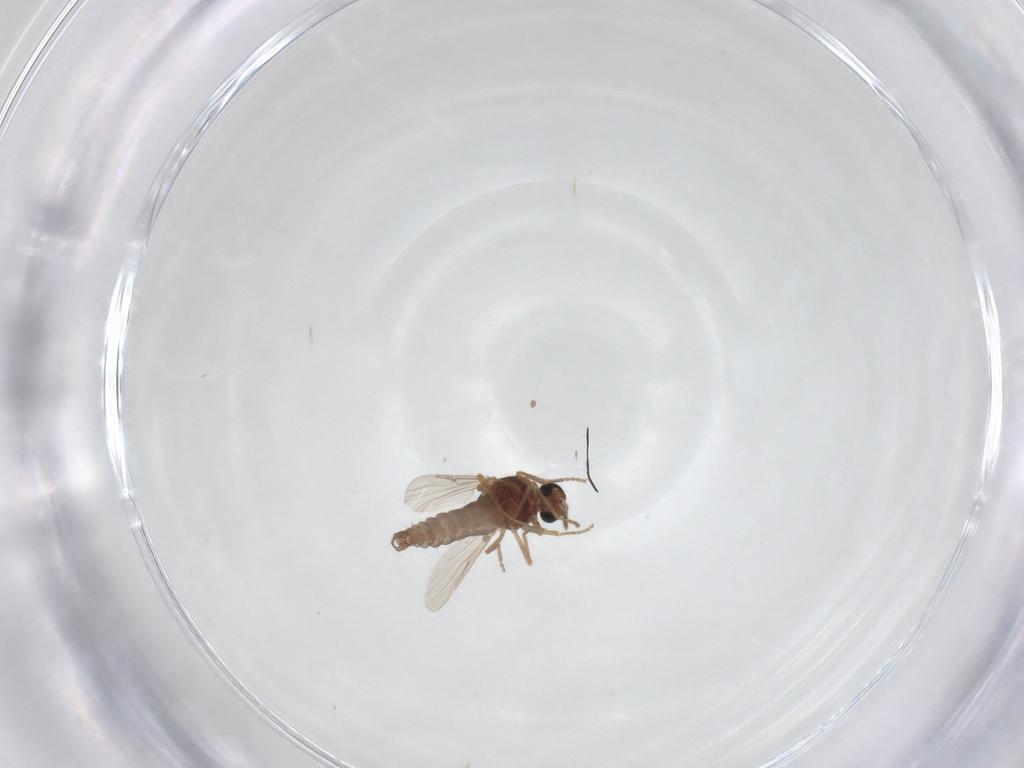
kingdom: Animalia
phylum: Arthropoda
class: Insecta
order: Diptera
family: Ceratopogonidae
